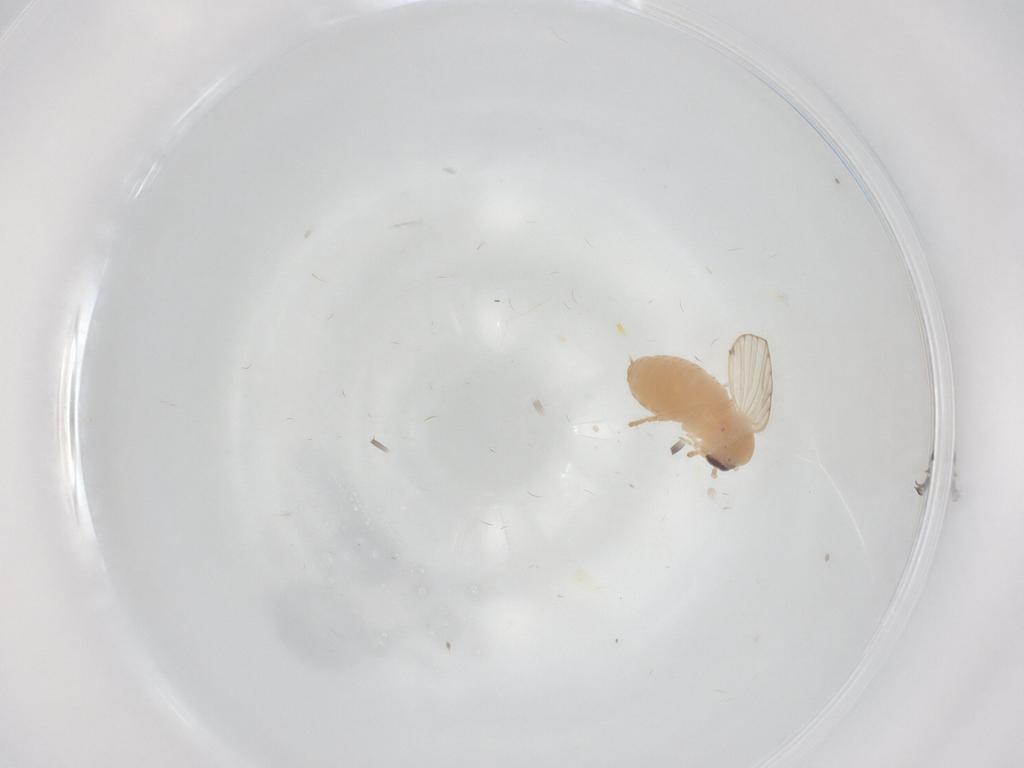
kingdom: Animalia
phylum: Arthropoda
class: Insecta
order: Diptera
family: Psychodidae
